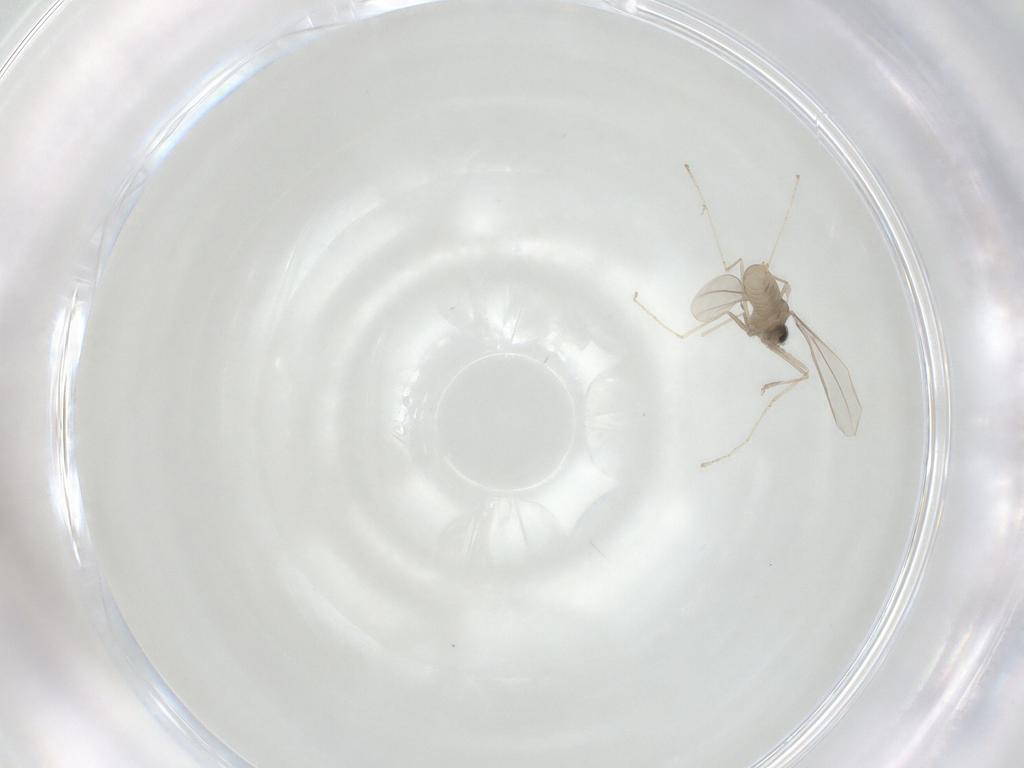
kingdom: Animalia
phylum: Arthropoda
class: Insecta
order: Diptera
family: Cecidomyiidae
